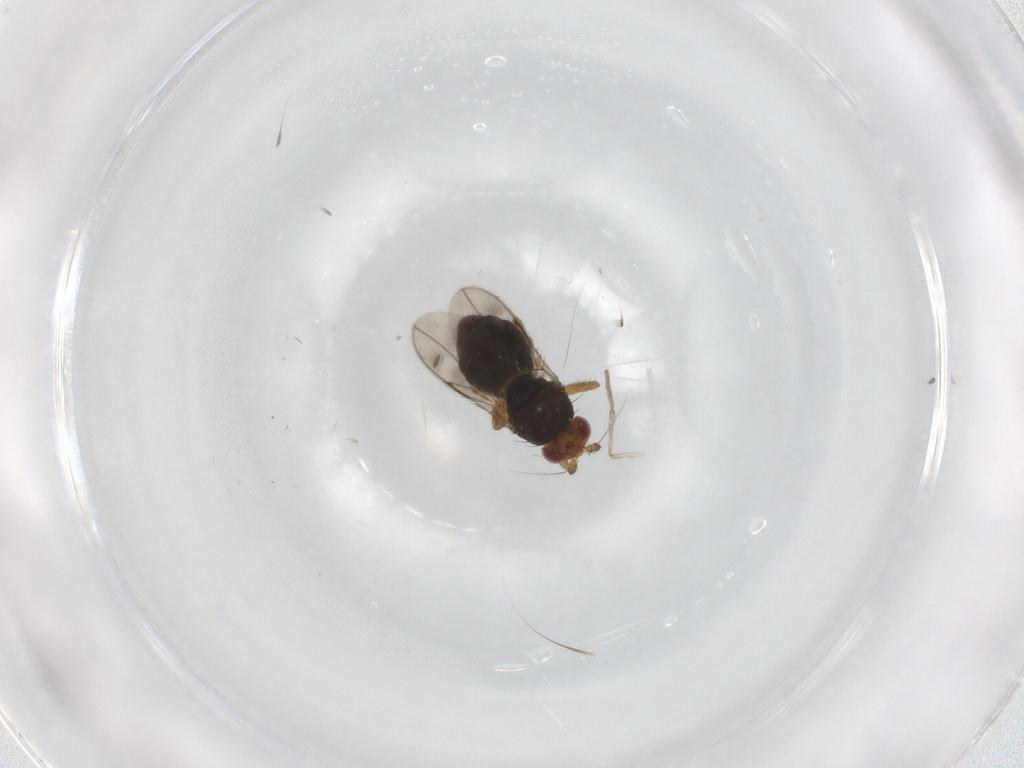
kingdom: Animalia
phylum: Arthropoda
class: Insecta
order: Diptera
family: Sphaeroceridae
